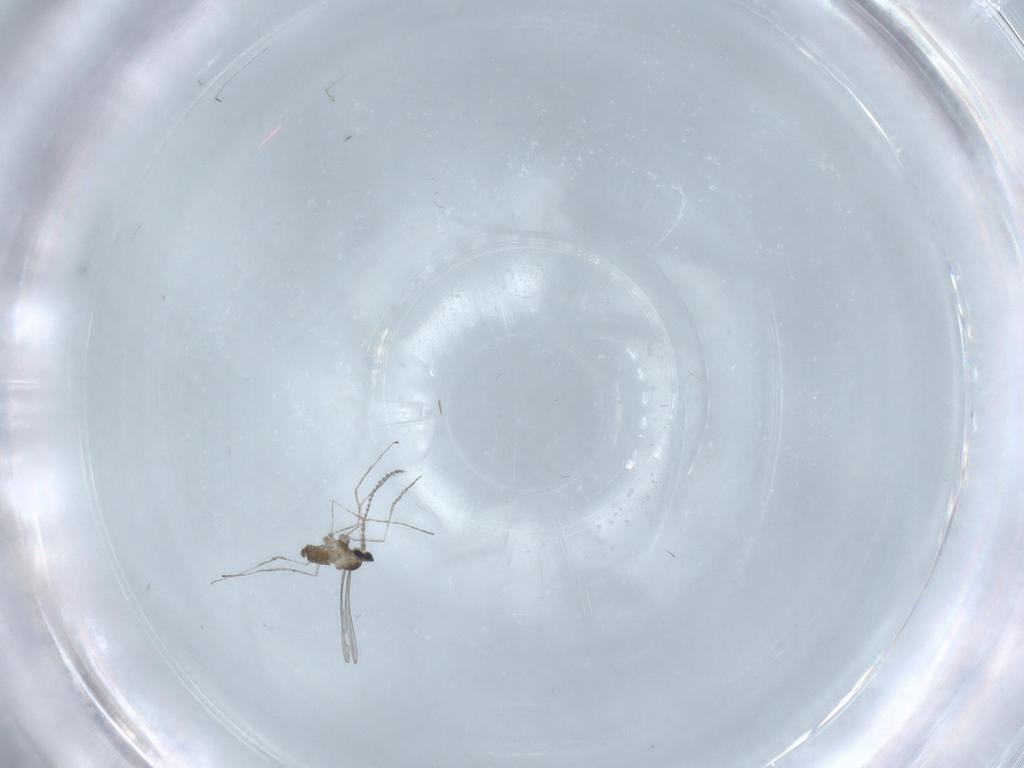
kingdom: Animalia
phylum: Arthropoda
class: Insecta
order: Diptera
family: Cecidomyiidae
